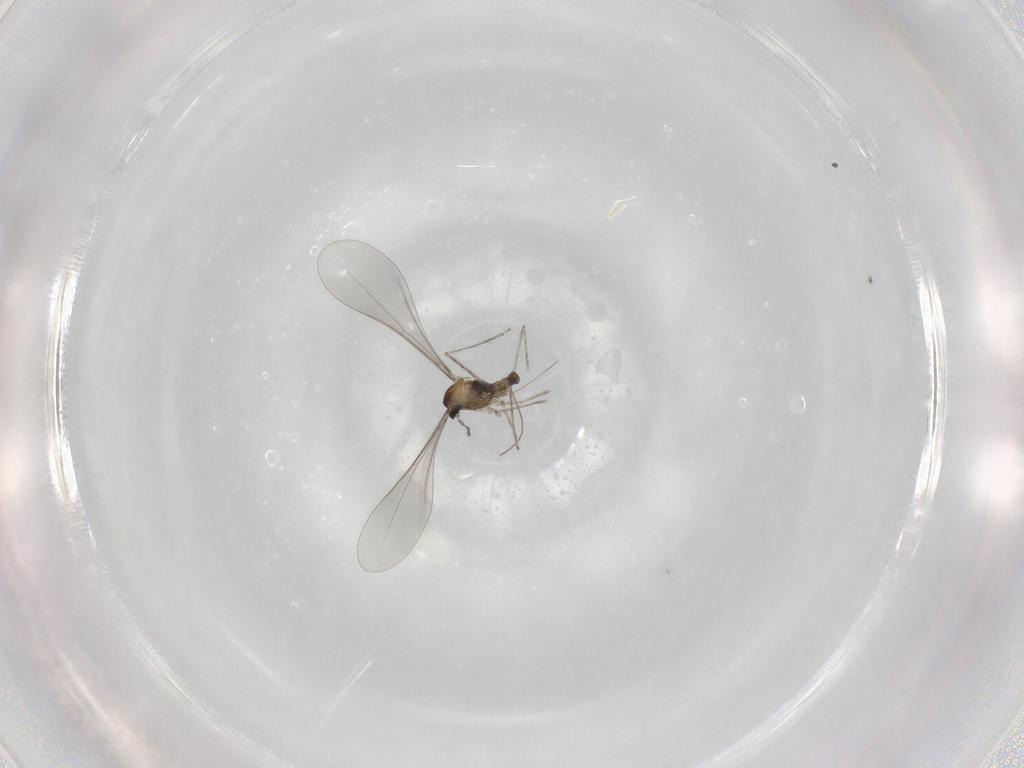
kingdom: Animalia
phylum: Arthropoda
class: Insecta
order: Diptera
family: Cecidomyiidae
